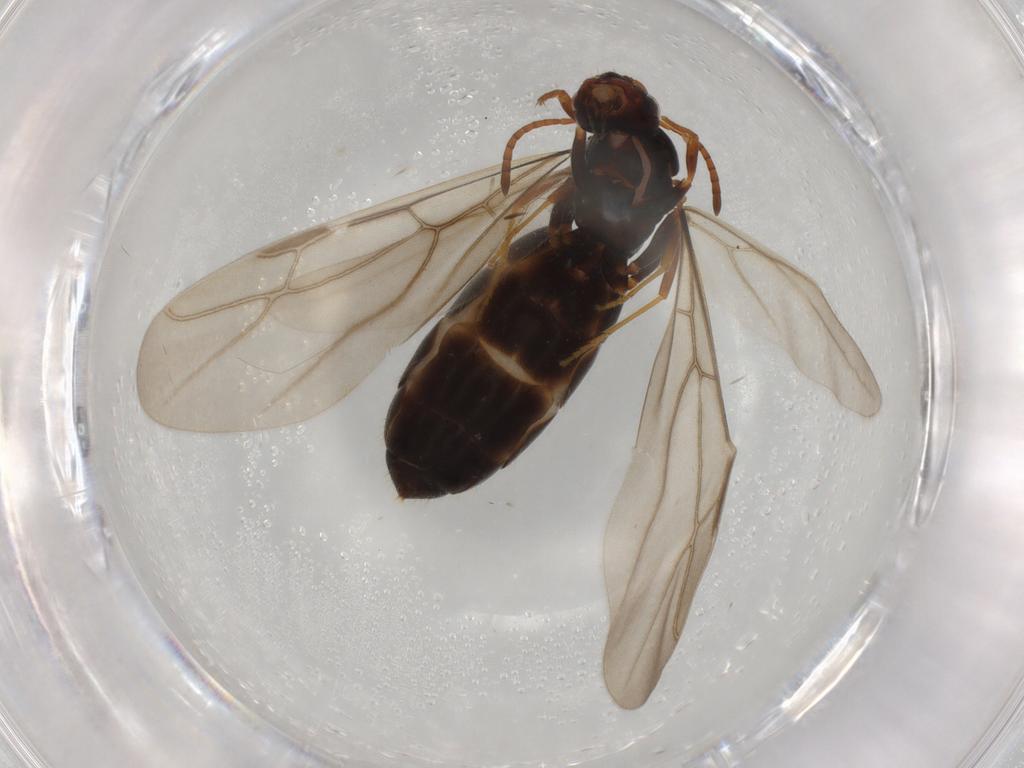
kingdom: Animalia
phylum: Arthropoda
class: Insecta
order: Hymenoptera
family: Formicidae
